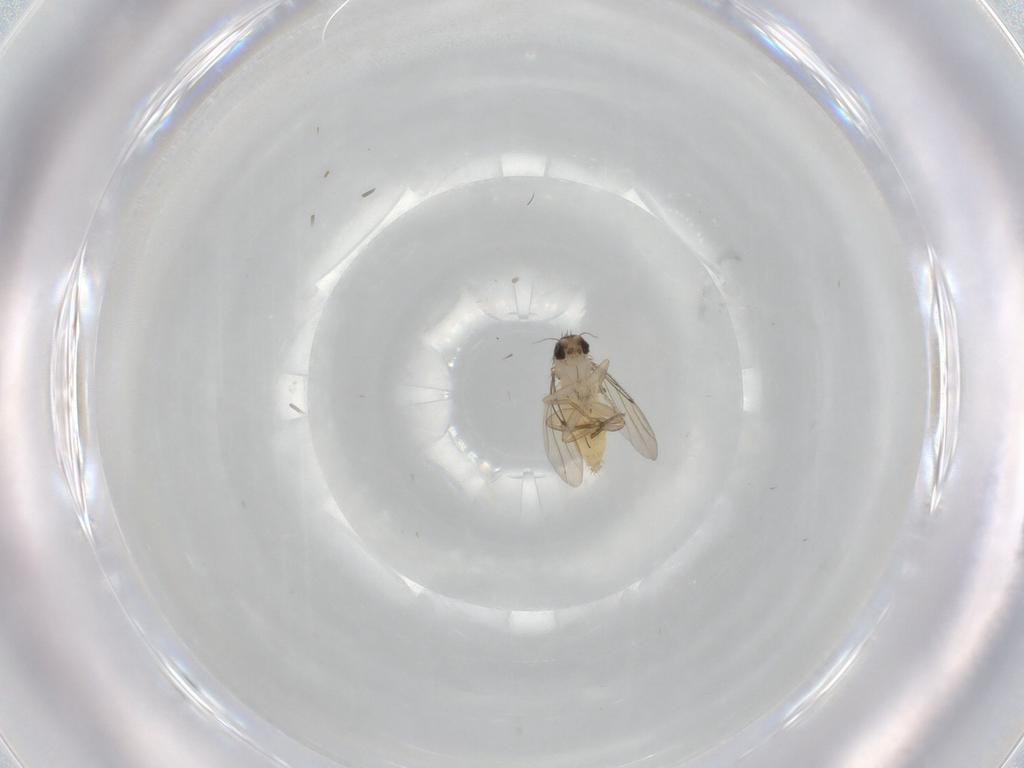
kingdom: Animalia
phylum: Arthropoda
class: Insecta
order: Diptera
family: Phoridae
